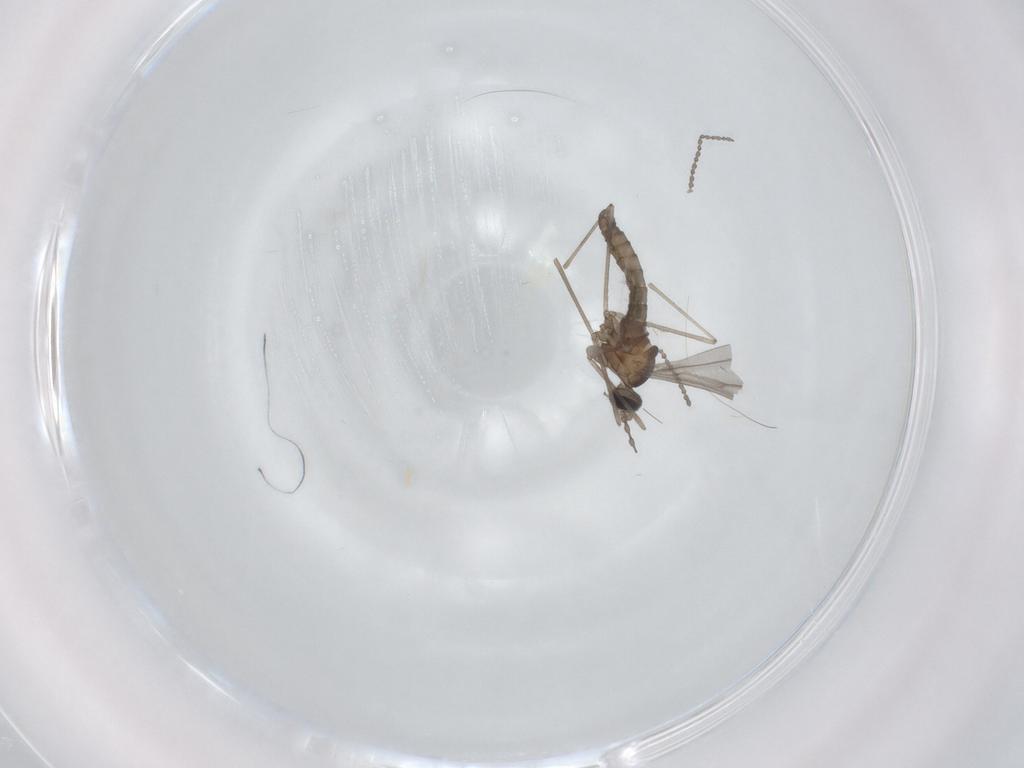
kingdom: Animalia
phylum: Arthropoda
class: Insecta
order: Diptera
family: Cecidomyiidae
